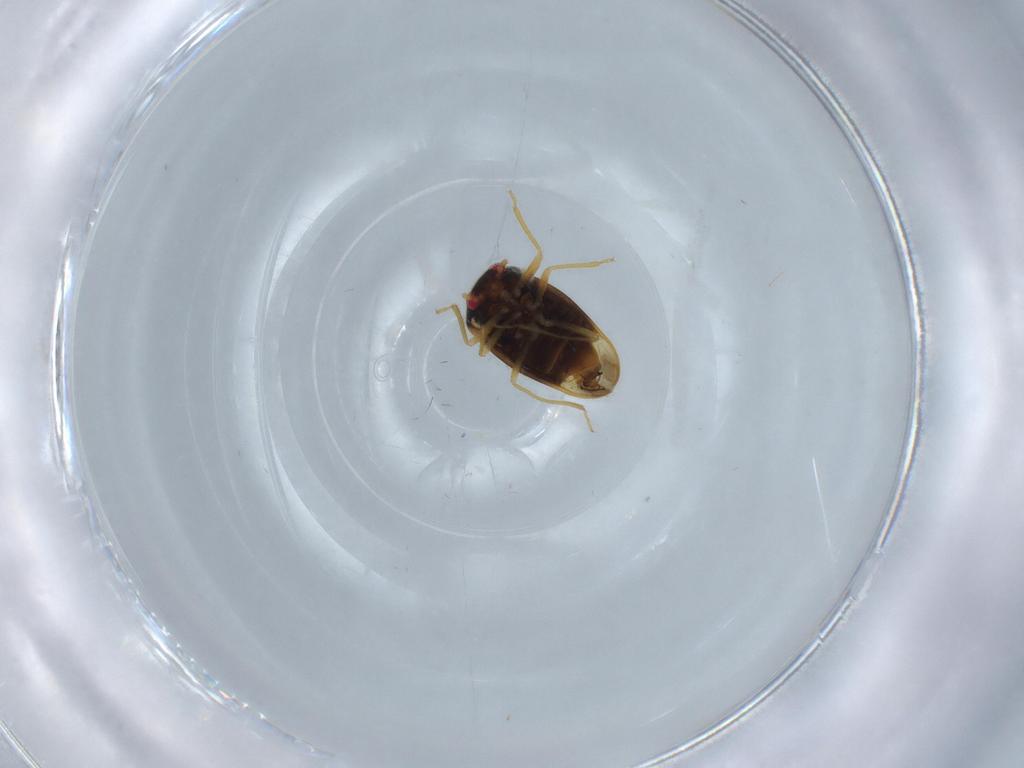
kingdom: Animalia
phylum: Arthropoda
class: Insecta
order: Hemiptera
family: Schizopteridae
